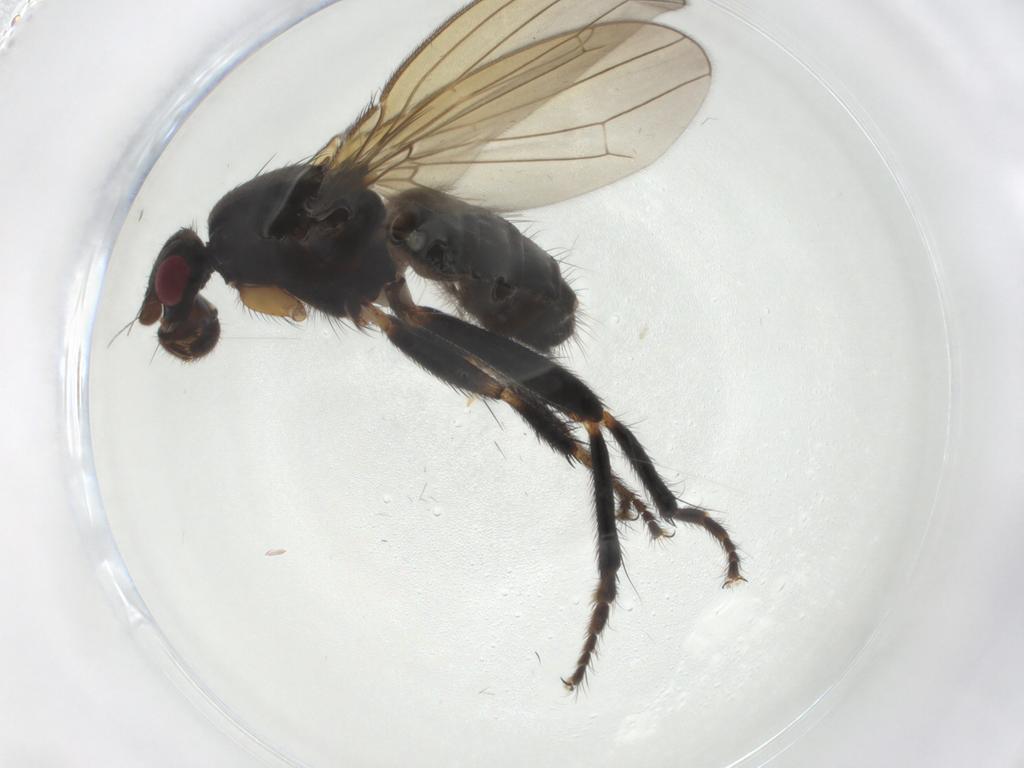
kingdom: Animalia
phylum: Arthropoda
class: Insecta
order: Diptera
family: Sphaeroceridae
